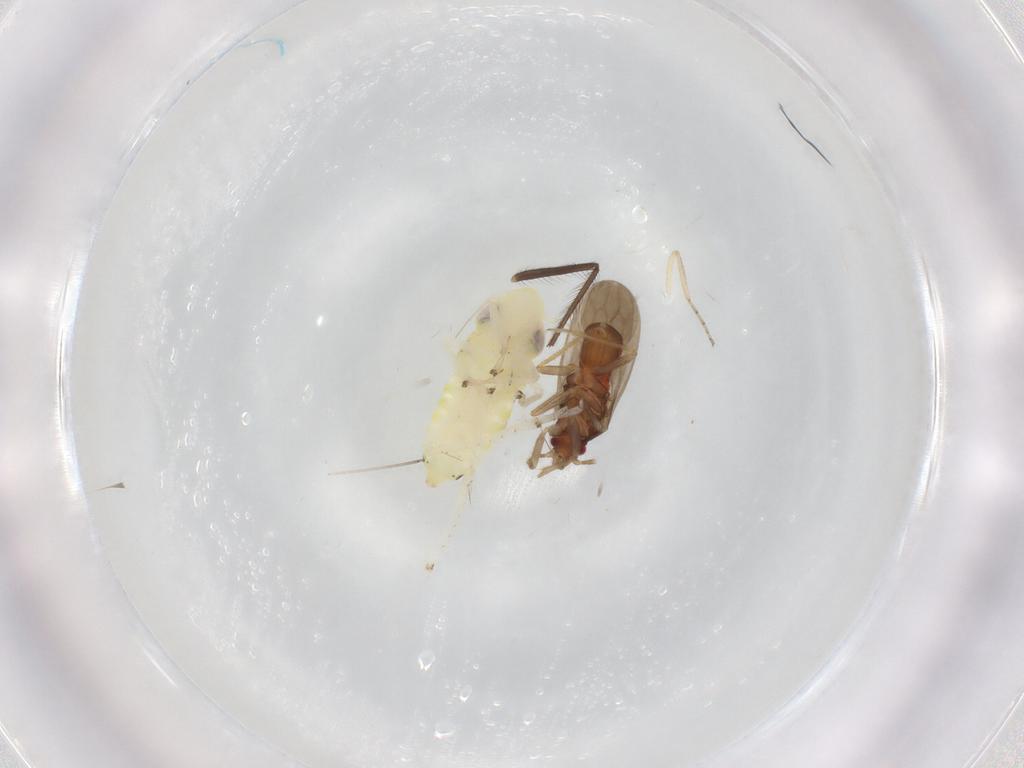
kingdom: Animalia
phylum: Arthropoda
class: Insecta
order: Hemiptera
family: Ceratocombidae
